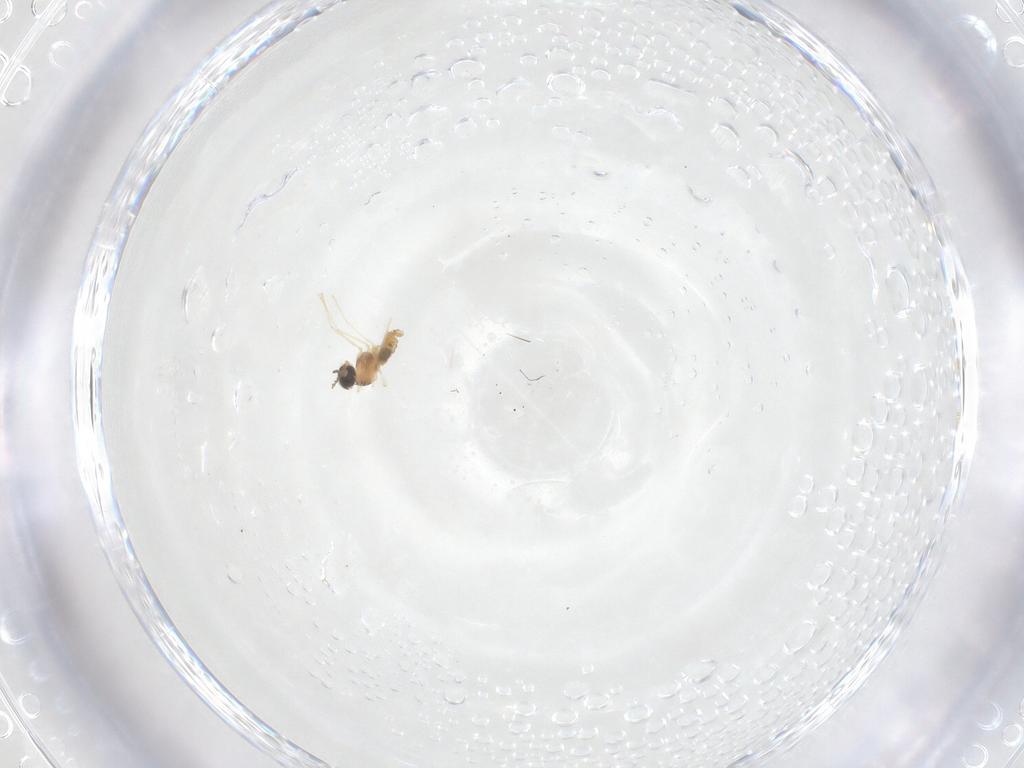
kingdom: Animalia
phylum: Arthropoda
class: Insecta
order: Diptera
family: Cecidomyiidae
